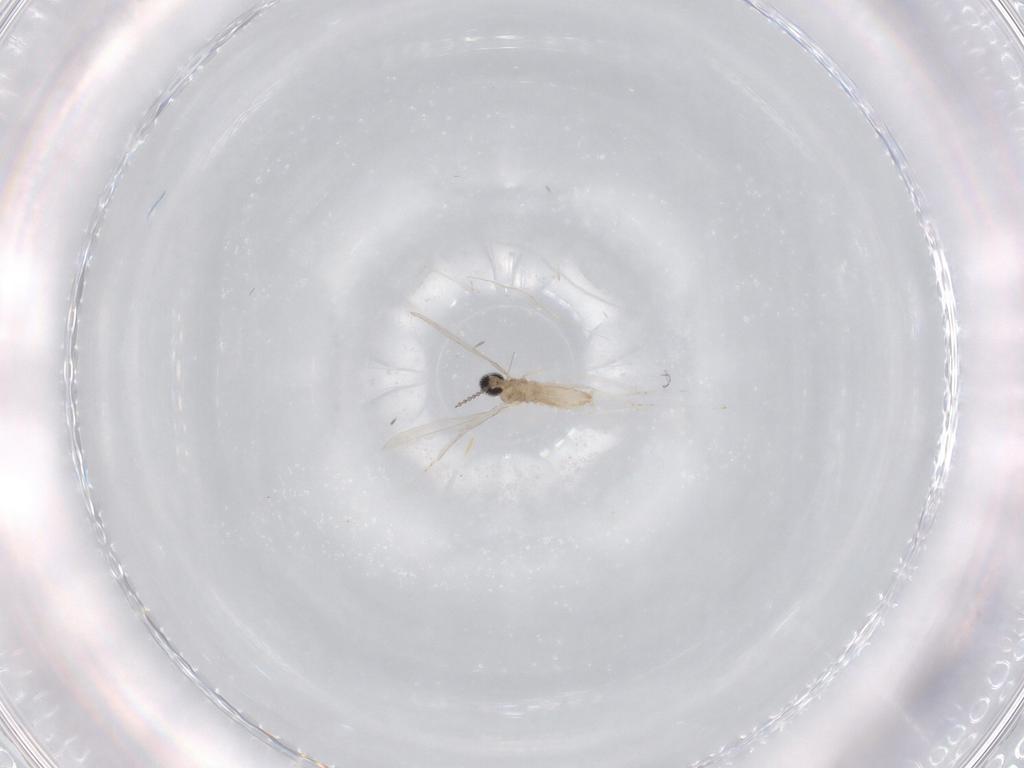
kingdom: Animalia
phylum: Arthropoda
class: Insecta
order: Diptera
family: Cecidomyiidae
